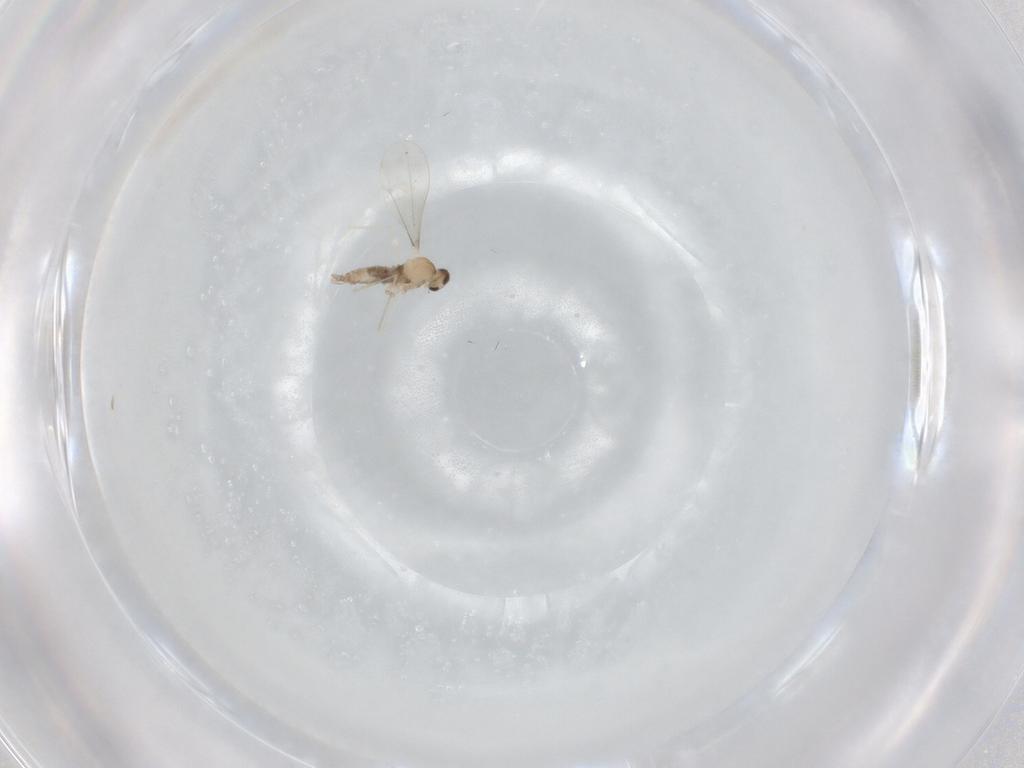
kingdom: Animalia
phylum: Arthropoda
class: Insecta
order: Diptera
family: Cecidomyiidae
